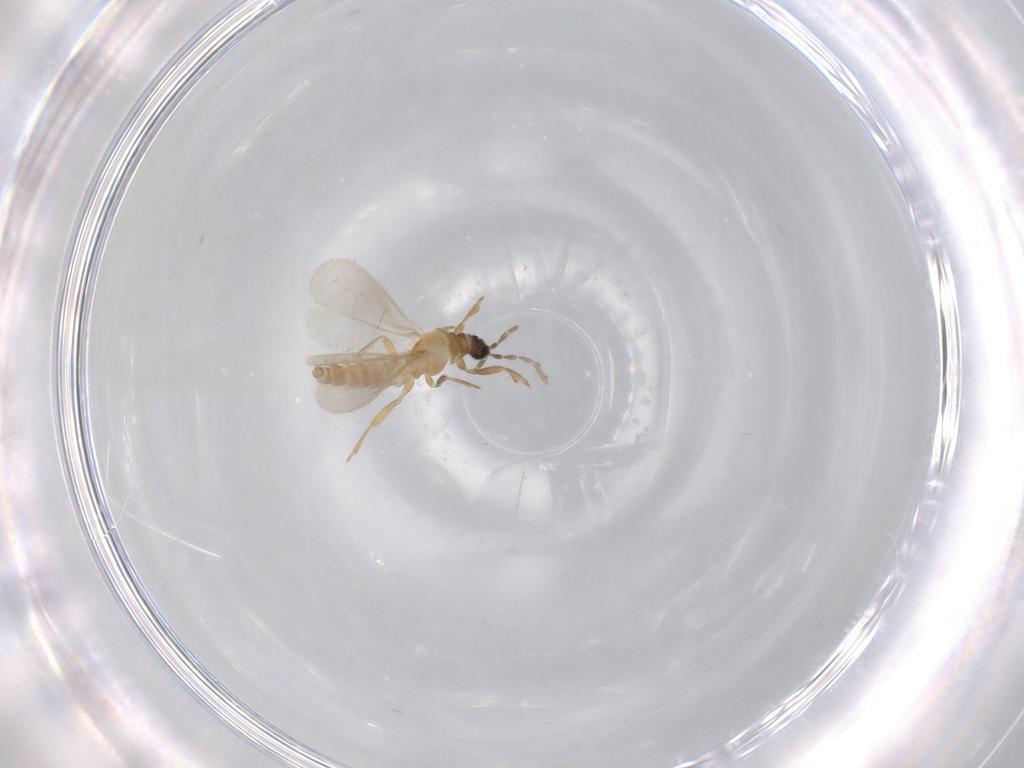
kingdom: Animalia
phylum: Arthropoda
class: Insecta
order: Hemiptera
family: Enicocephalidae
